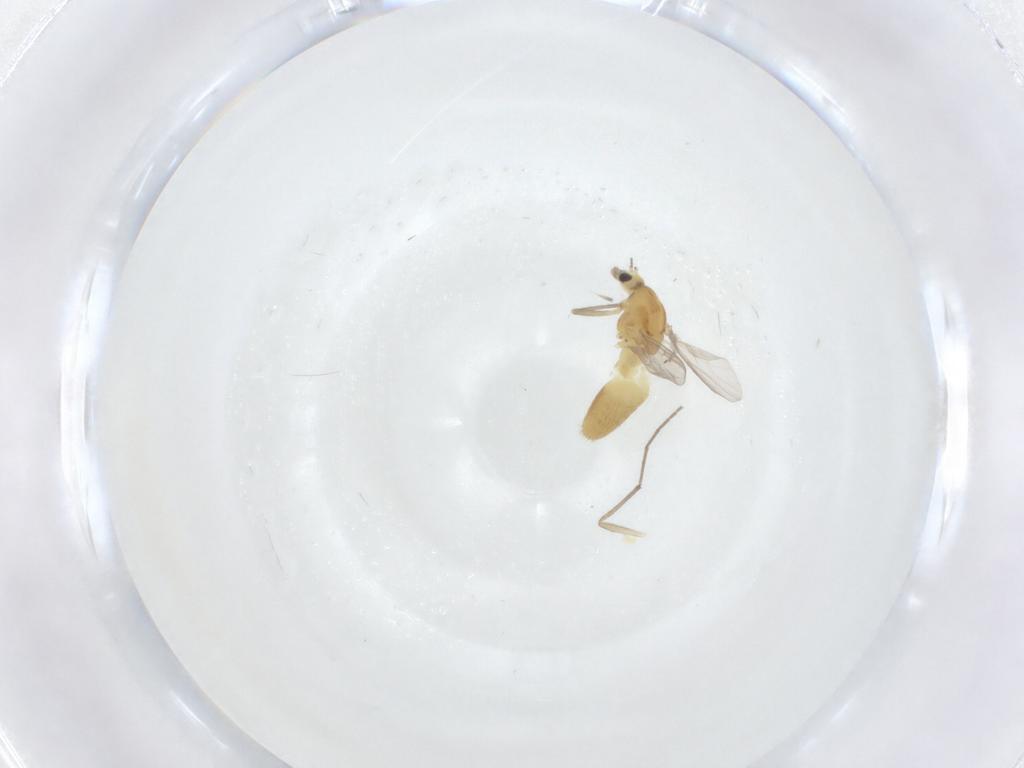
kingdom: Animalia
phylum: Arthropoda
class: Insecta
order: Diptera
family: Chironomidae
